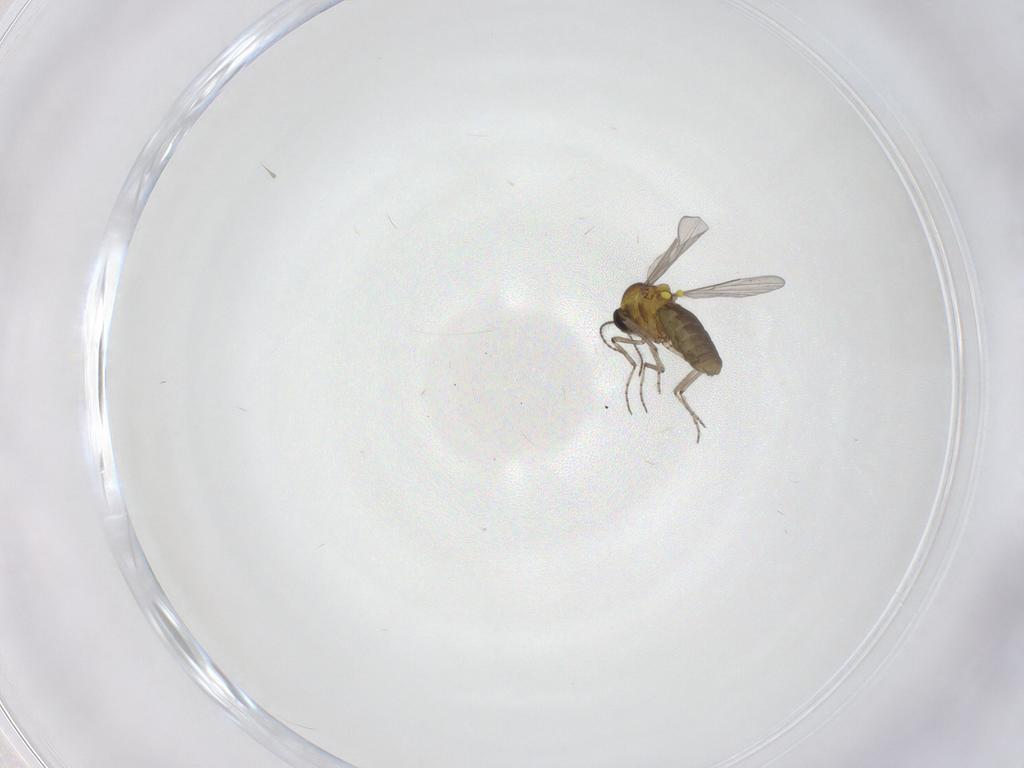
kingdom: Animalia
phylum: Arthropoda
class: Insecta
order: Diptera
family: Ceratopogonidae
